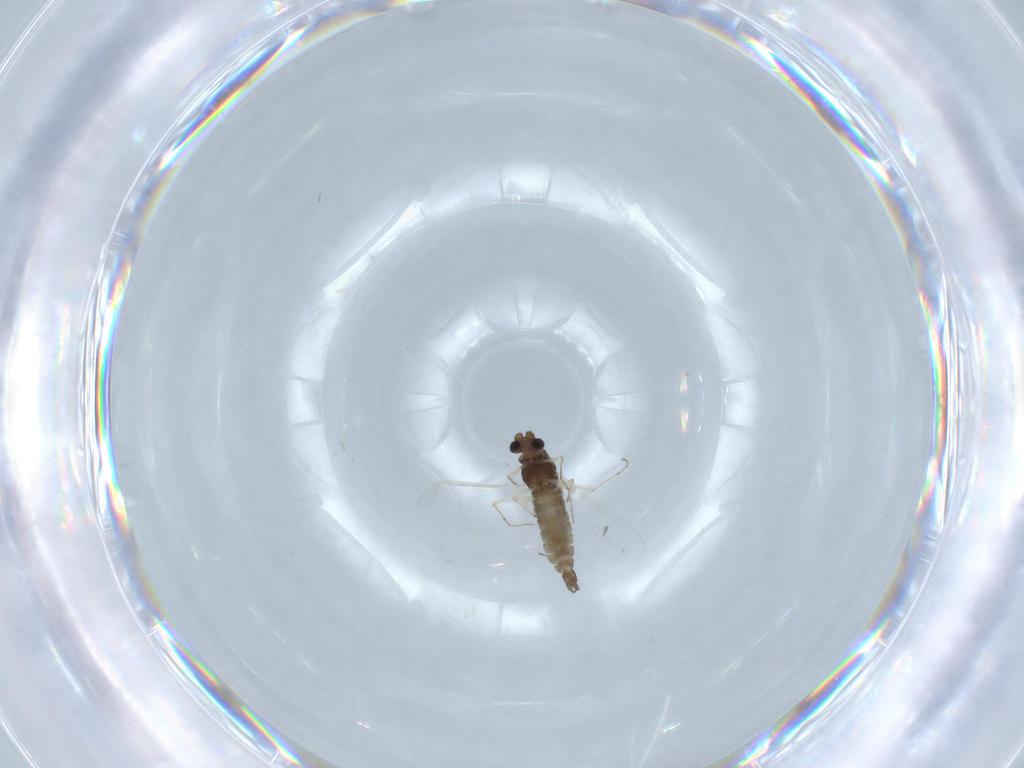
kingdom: Animalia
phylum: Arthropoda
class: Insecta
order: Diptera
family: Chironomidae
